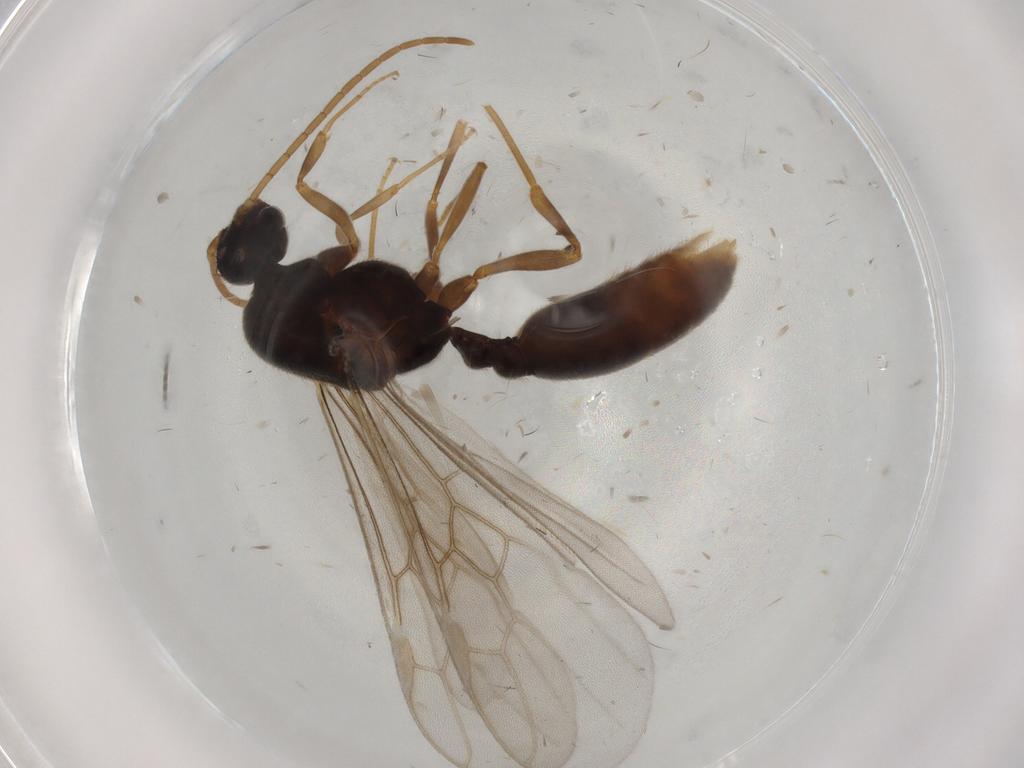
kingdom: Animalia
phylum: Arthropoda
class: Insecta
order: Hymenoptera
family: Formicidae
